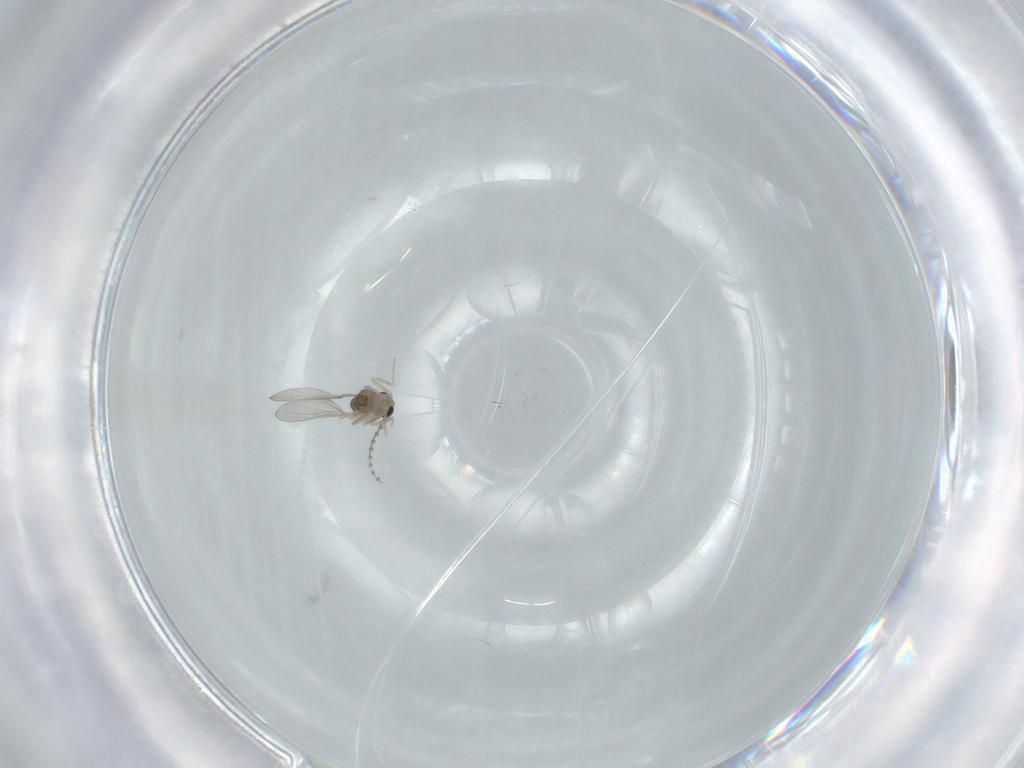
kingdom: Animalia
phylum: Arthropoda
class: Insecta
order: Diptera
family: Cecidomyiidae
